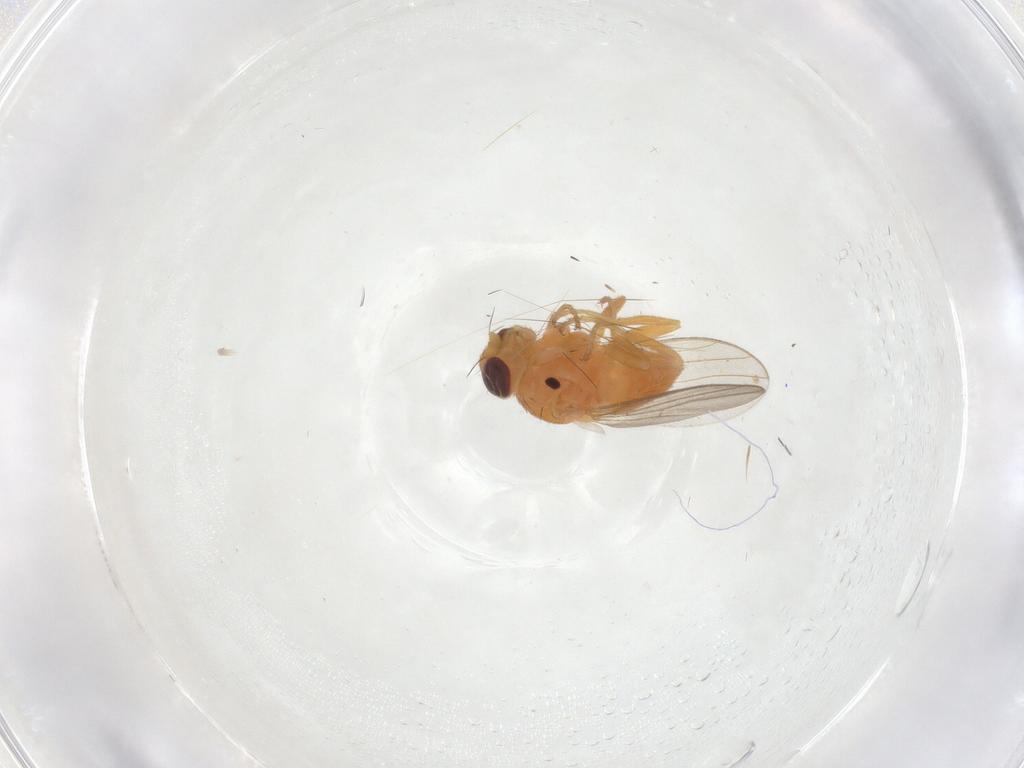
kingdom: Animalia
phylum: Arthropoda
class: Insecta
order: Diptera
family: Chloropidae
